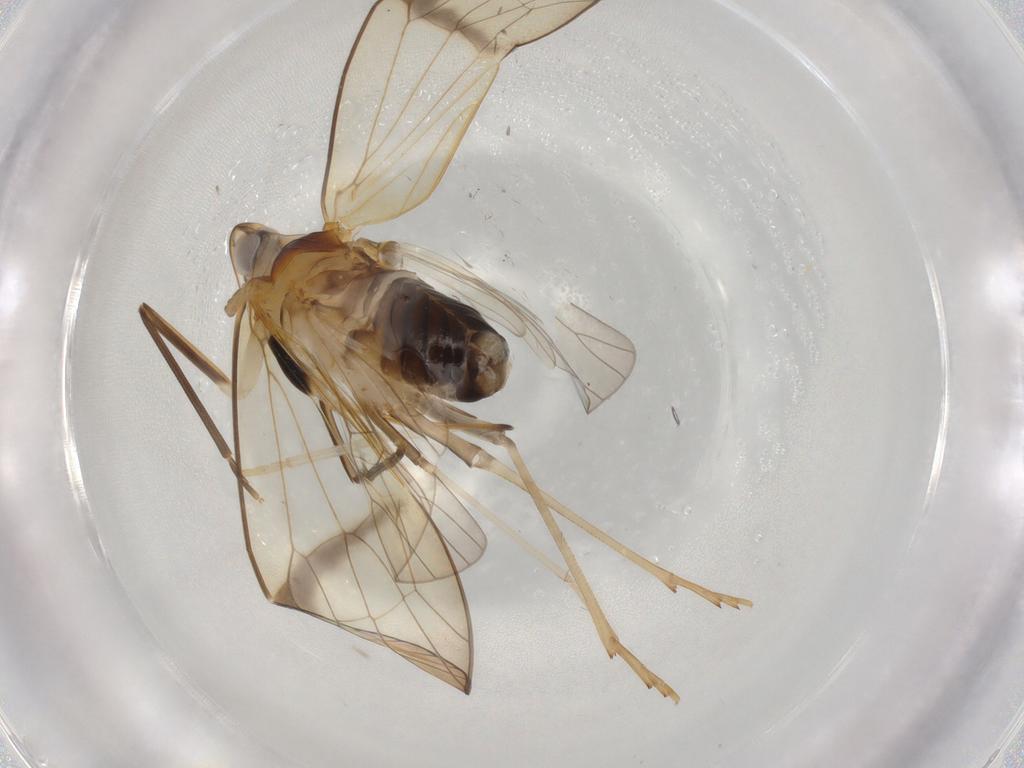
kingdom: Animalia
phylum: Arthropoda
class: Insecta
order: Hemiptera
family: Kinnaridae
